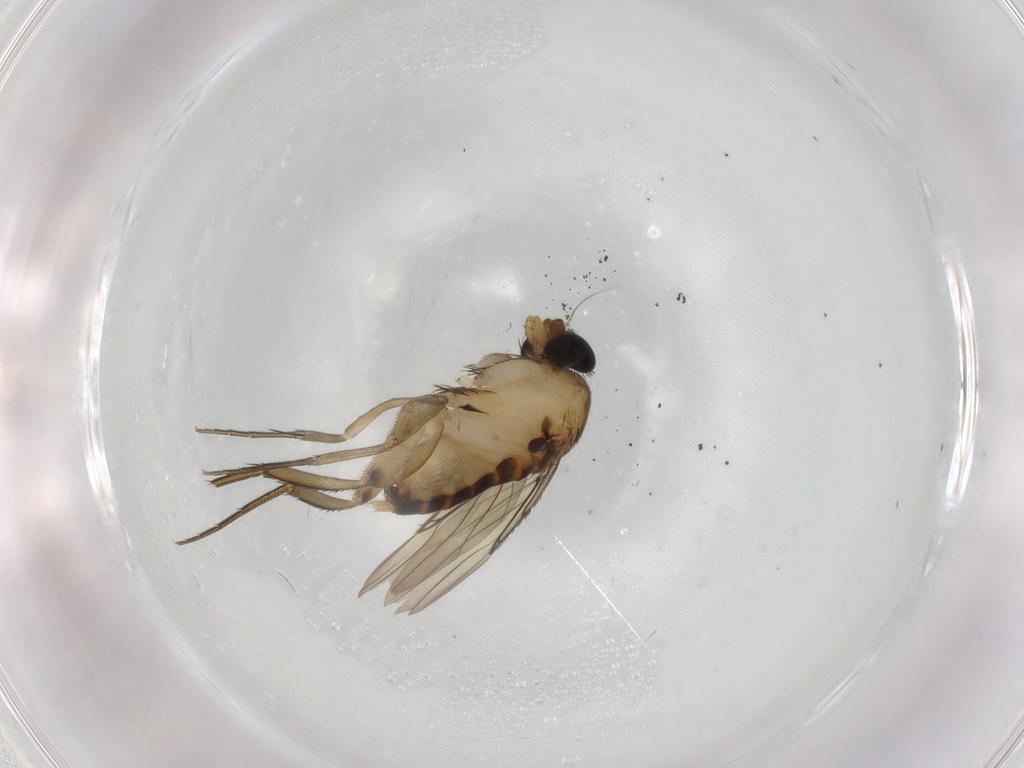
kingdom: Animalia
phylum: Arthropoda
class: Insecta
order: Diptera
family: Phoridae
